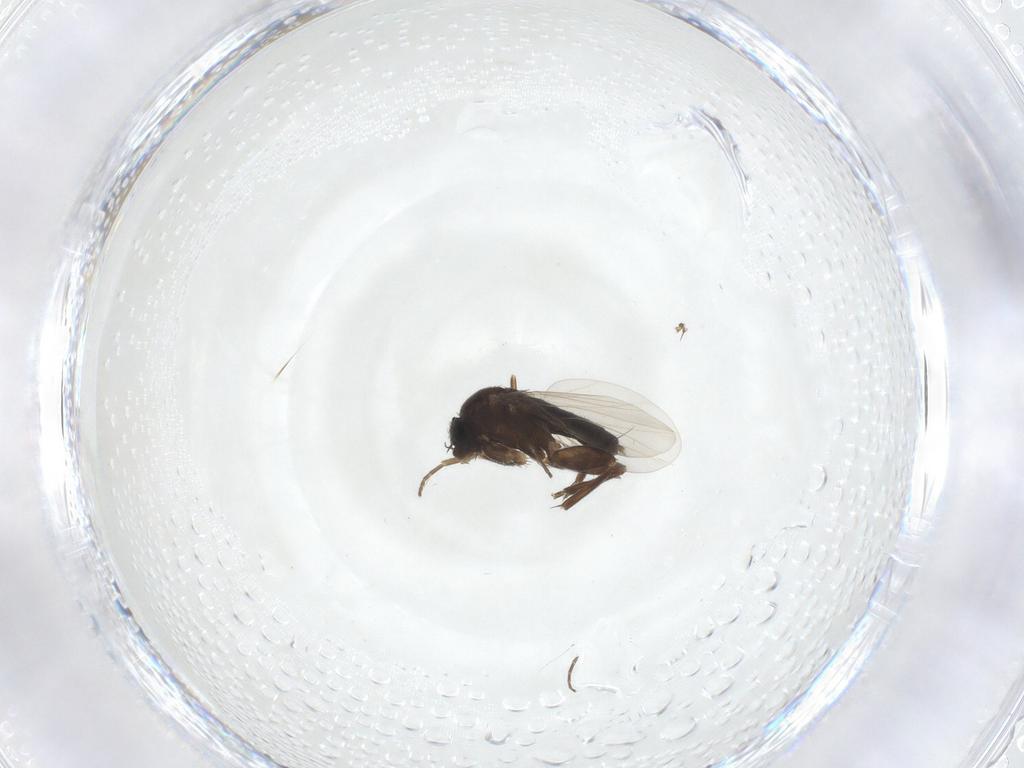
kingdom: Animalia
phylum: Arthropoda
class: Insecta
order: Diptera
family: Phoridae
